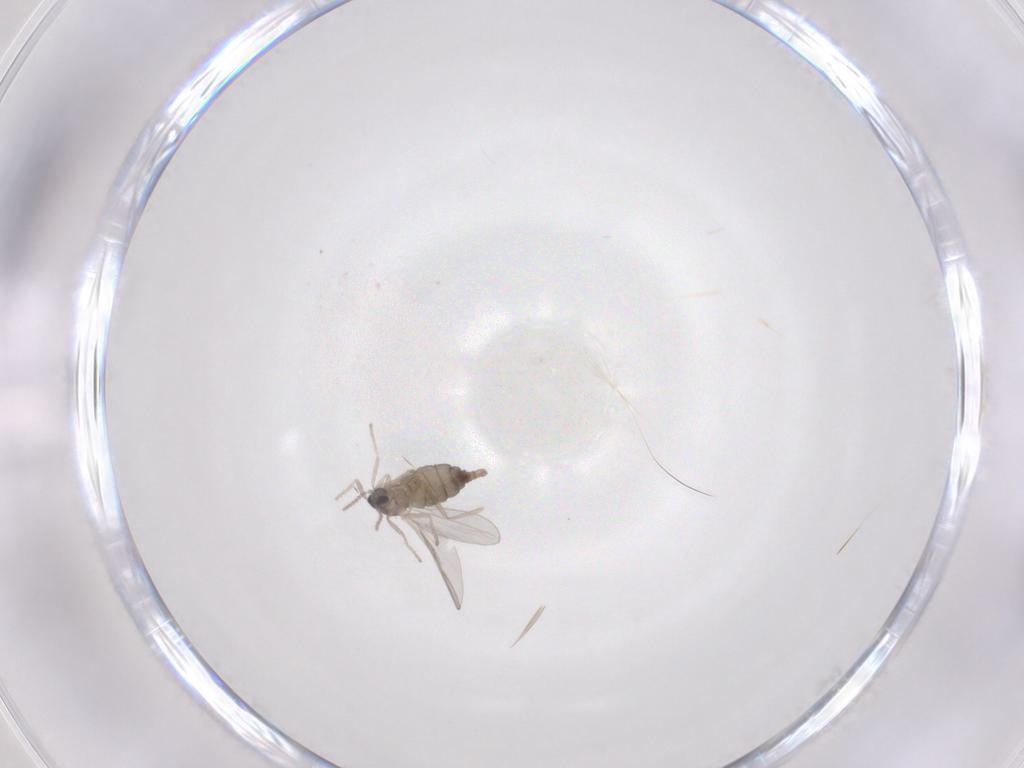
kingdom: Animalia
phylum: Arthropoda
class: Insecta
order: Diptera
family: Cecidomyiidae
